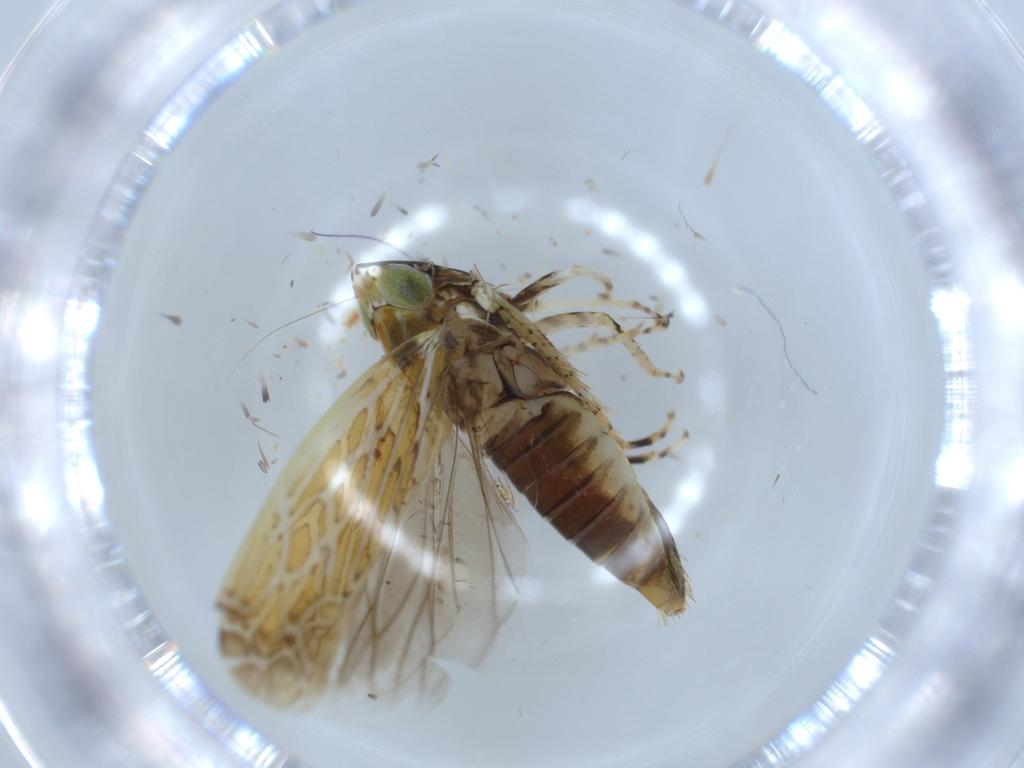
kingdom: Animalia
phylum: Arthropoda
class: Insecta
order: Hemiptera
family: Cicadellidae
